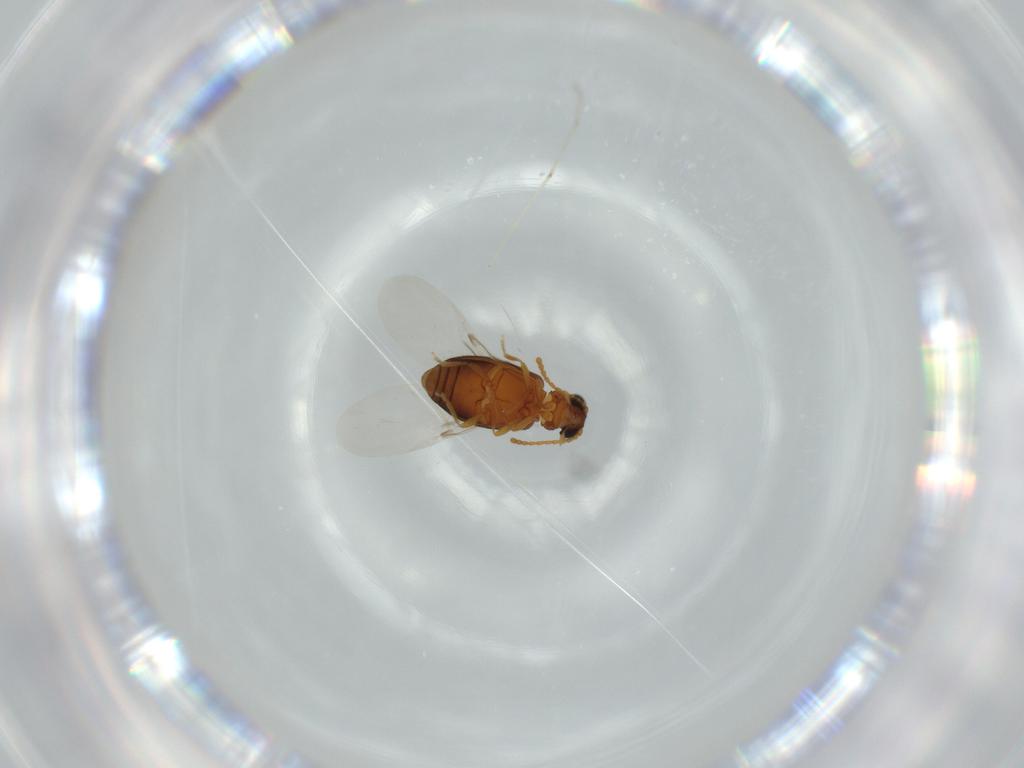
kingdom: Animalia
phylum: Arthropoda
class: Insecta
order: Coleoptera
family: Aderidae
